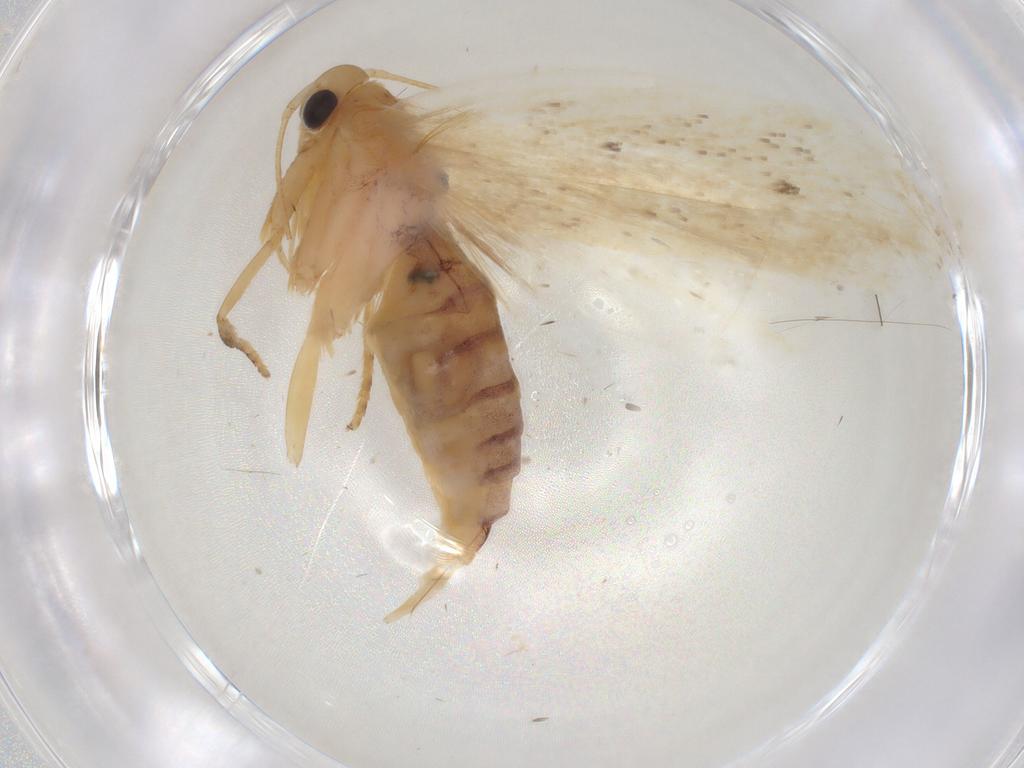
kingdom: Animalia
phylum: Arthropoda
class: Insecta
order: Lepidoptera
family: Depressariidae
